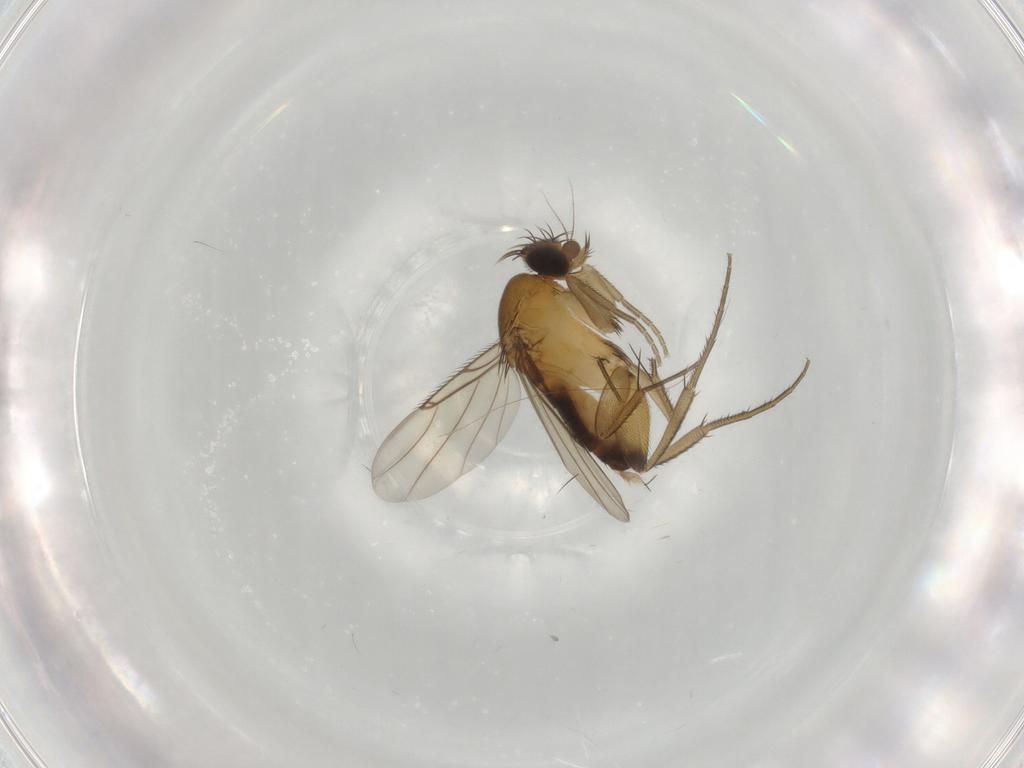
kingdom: Animalia
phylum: Arthropoda
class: Insecta
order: Diptera
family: Phoridae
